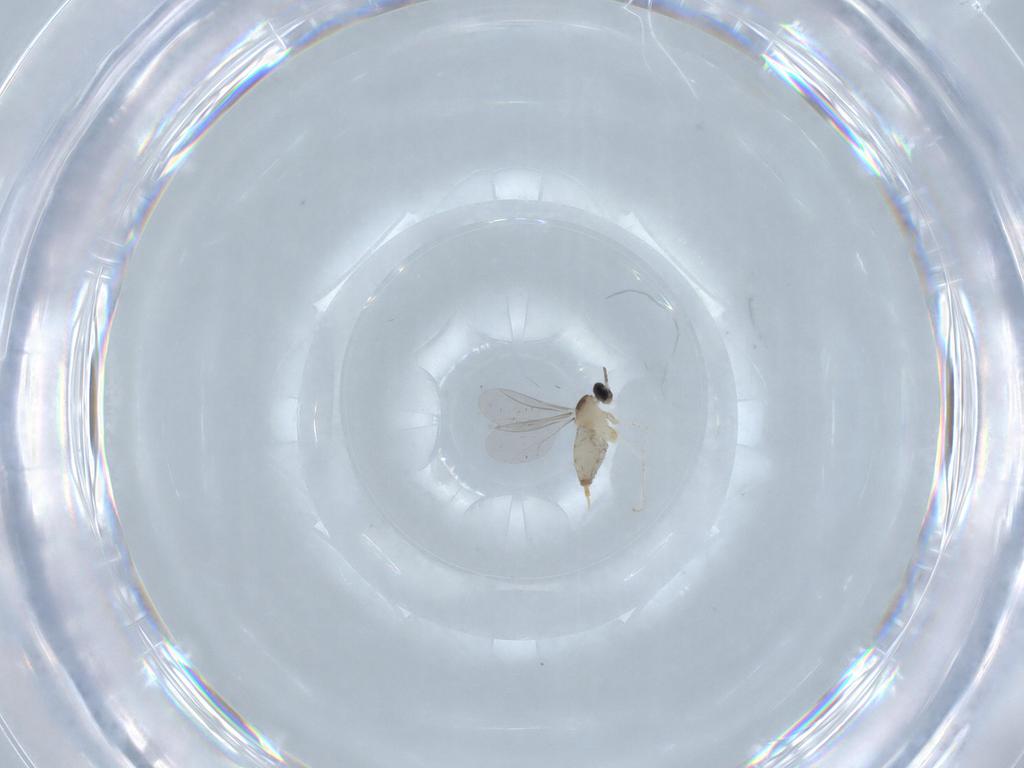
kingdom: Animalia
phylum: Arthropoda
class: Insecta
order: Diptera
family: Cecidomyiidae
